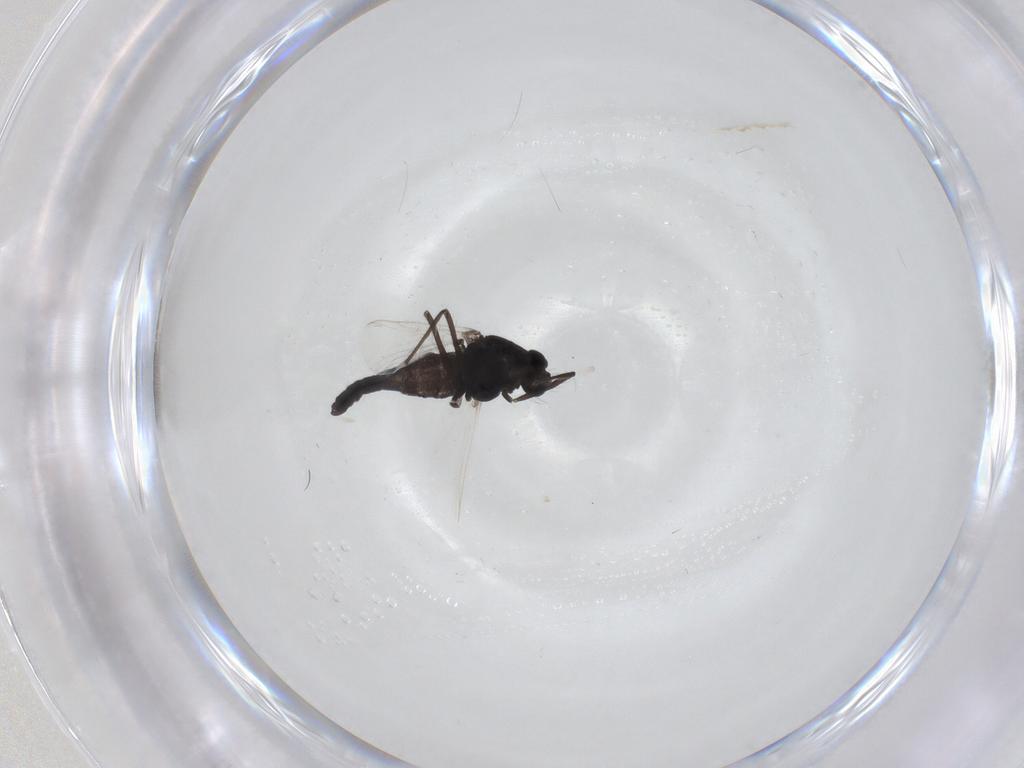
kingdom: Animalia
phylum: Arthropoda
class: Insecta
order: Diptera
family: Chironomidae
